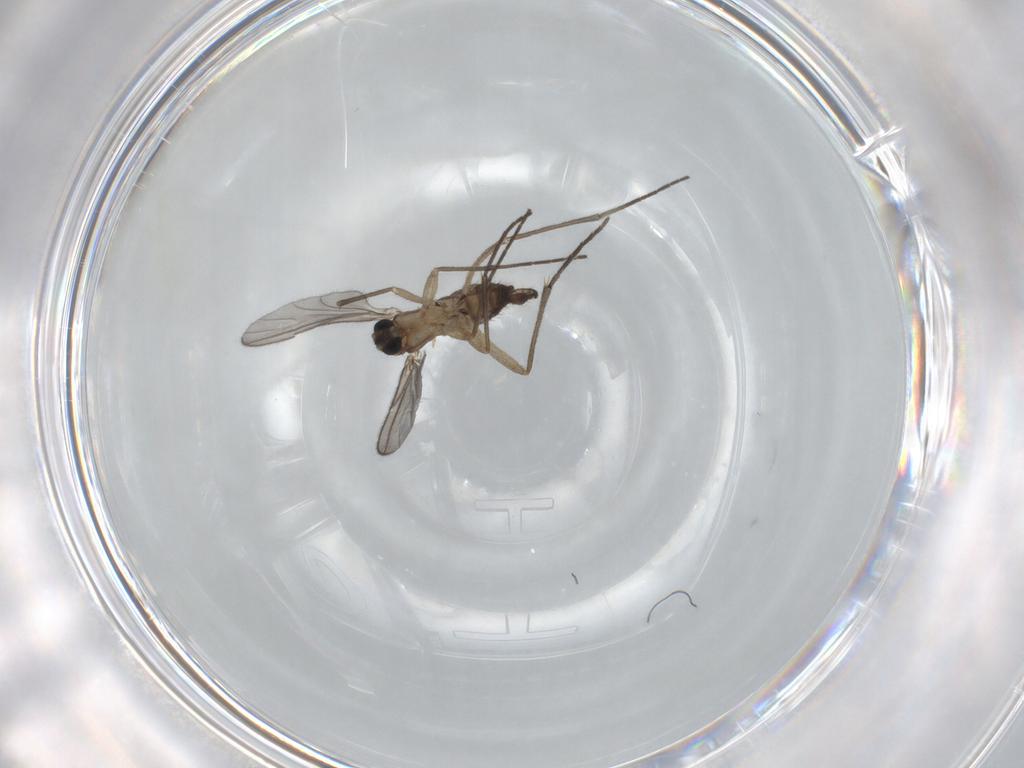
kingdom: Animalia
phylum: Arthropoda
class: Insecta
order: Diptera
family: Sciaridae
